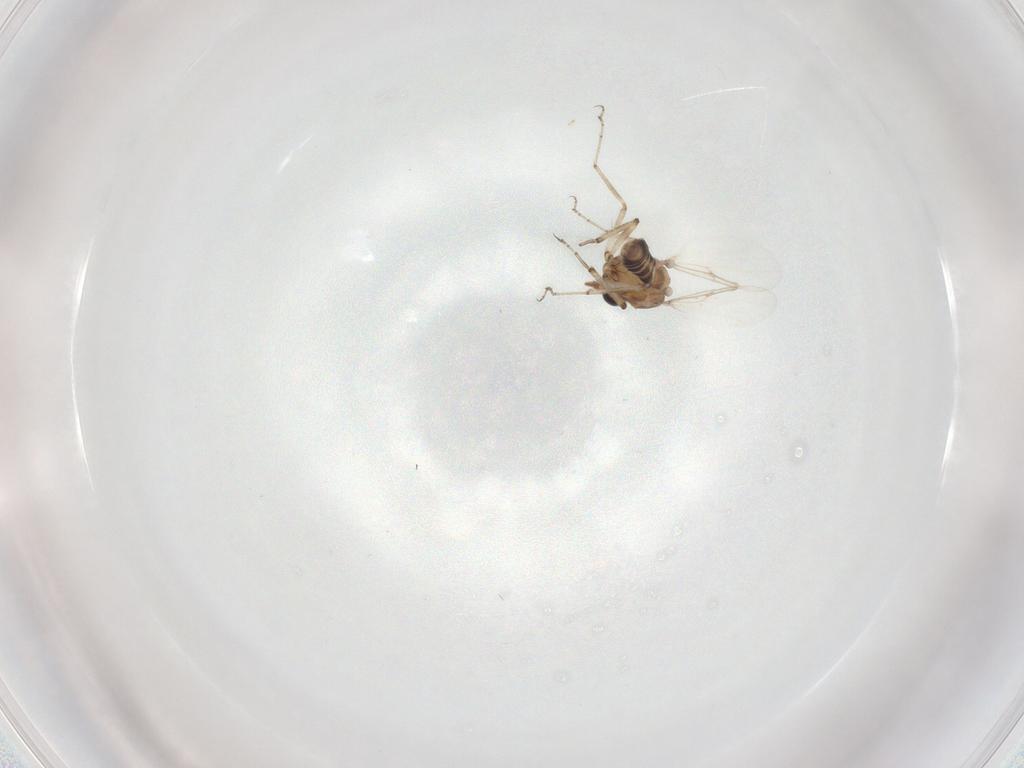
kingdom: Animalia
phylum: Arthropoda
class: Insecta
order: Diptera
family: Ceratopogonidae
